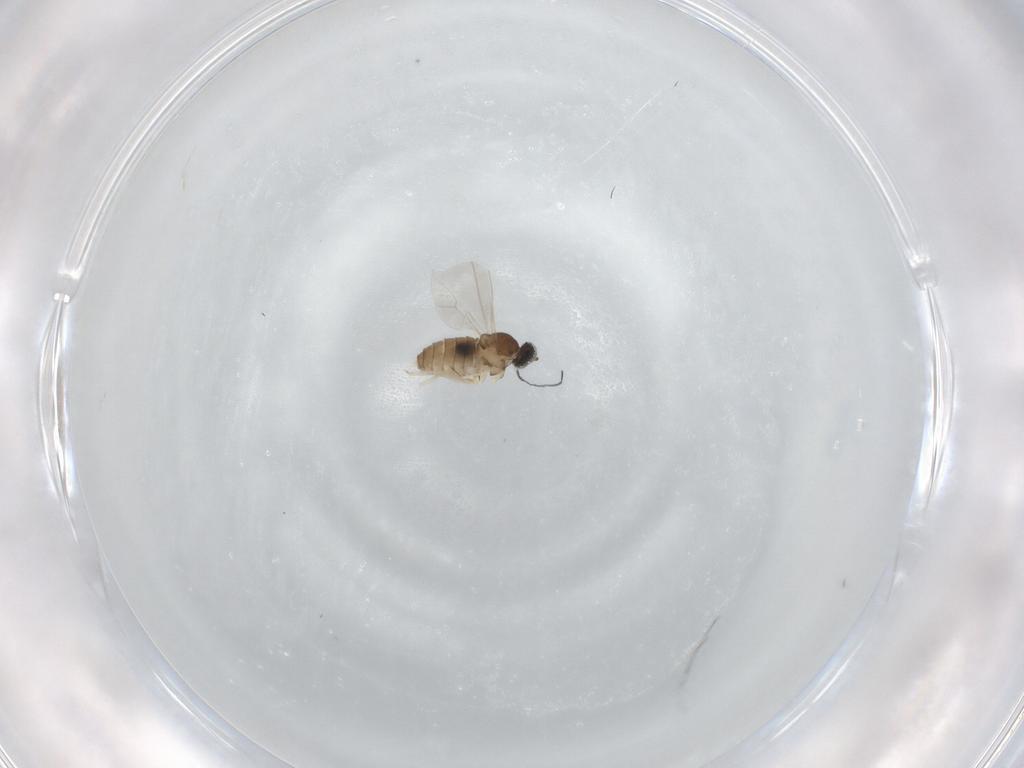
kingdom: Animalia
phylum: Arthropoda
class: Insecta
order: Diptera
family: Cecidomyiidae
